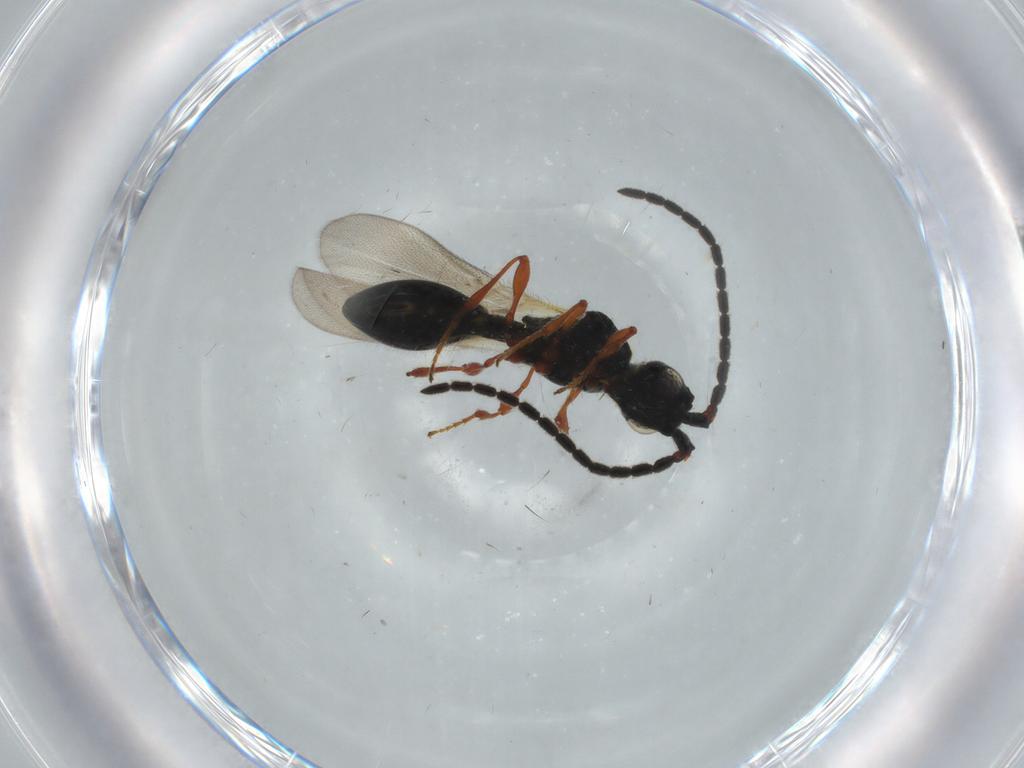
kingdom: Animalia
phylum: Arthropoda
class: Insecta
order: Hymenoptera
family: Diapriidae
